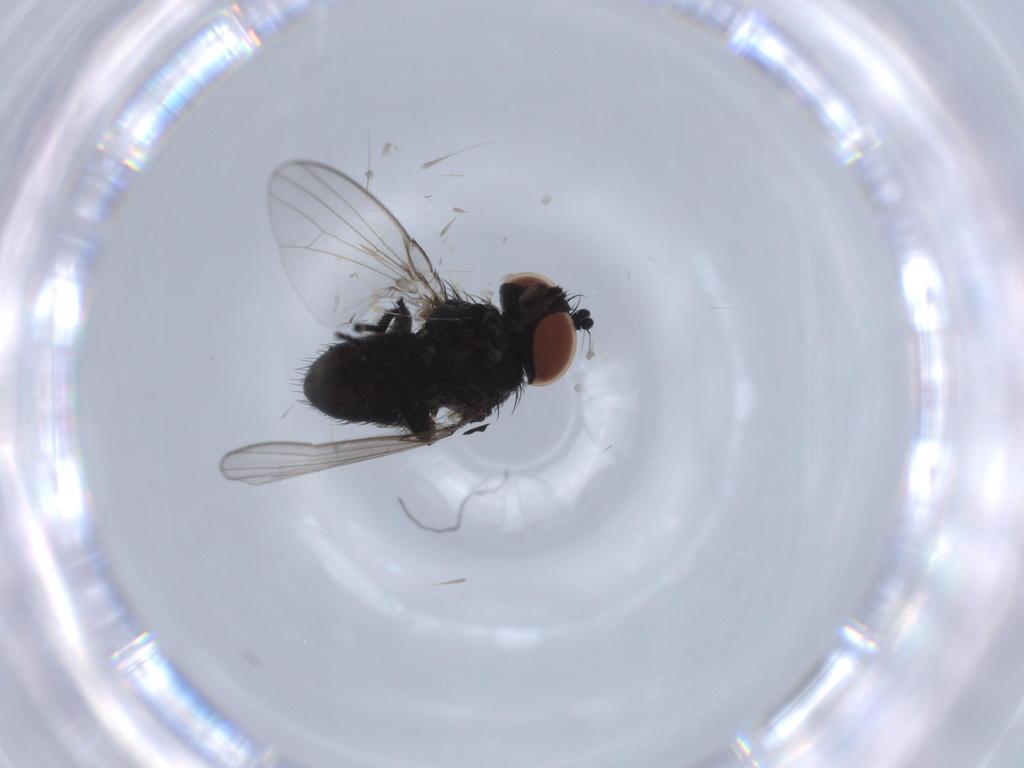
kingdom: Animalia
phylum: Arthropoda
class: Insecta
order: Diptera
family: Milichiidae
